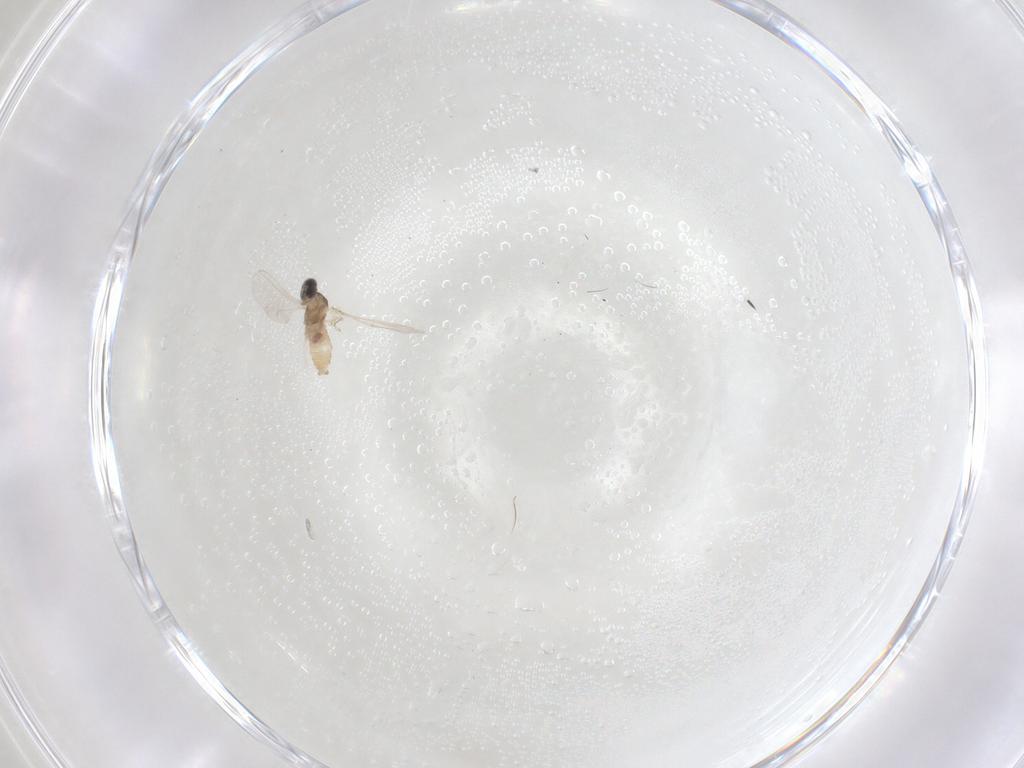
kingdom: Animalia
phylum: Arthropoda
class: Insecta
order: Diptera
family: Cecidomyiidae
